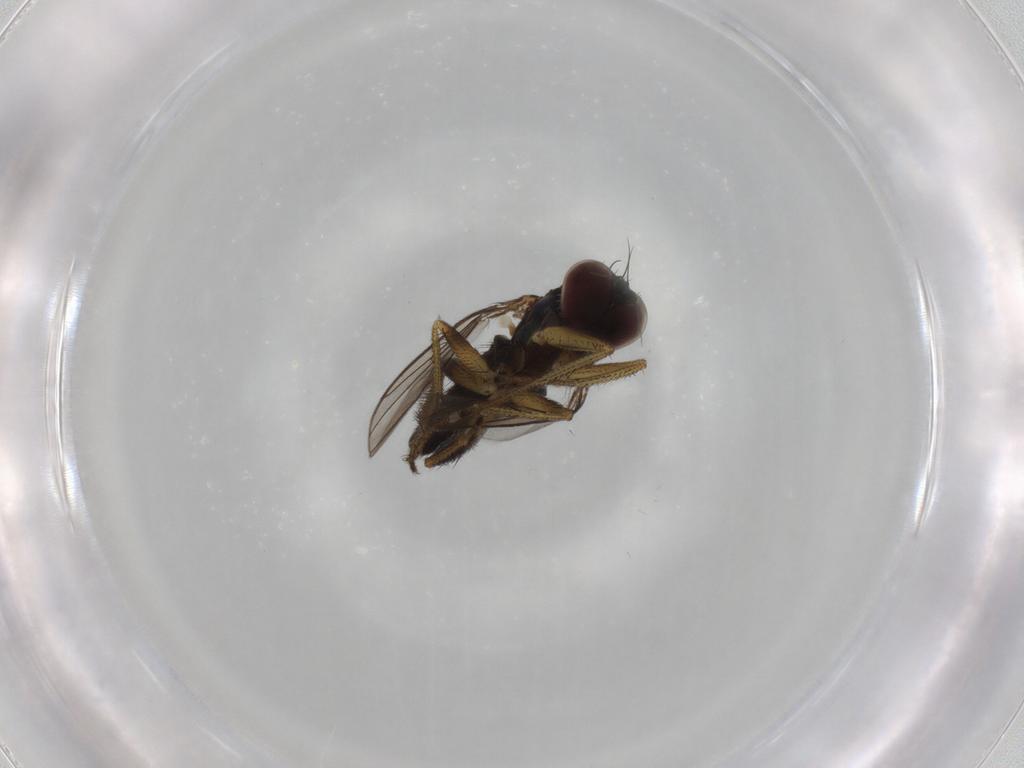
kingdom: Animalia
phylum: Arthropoda
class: Insecta
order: Diptera
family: Dolichopodidae
